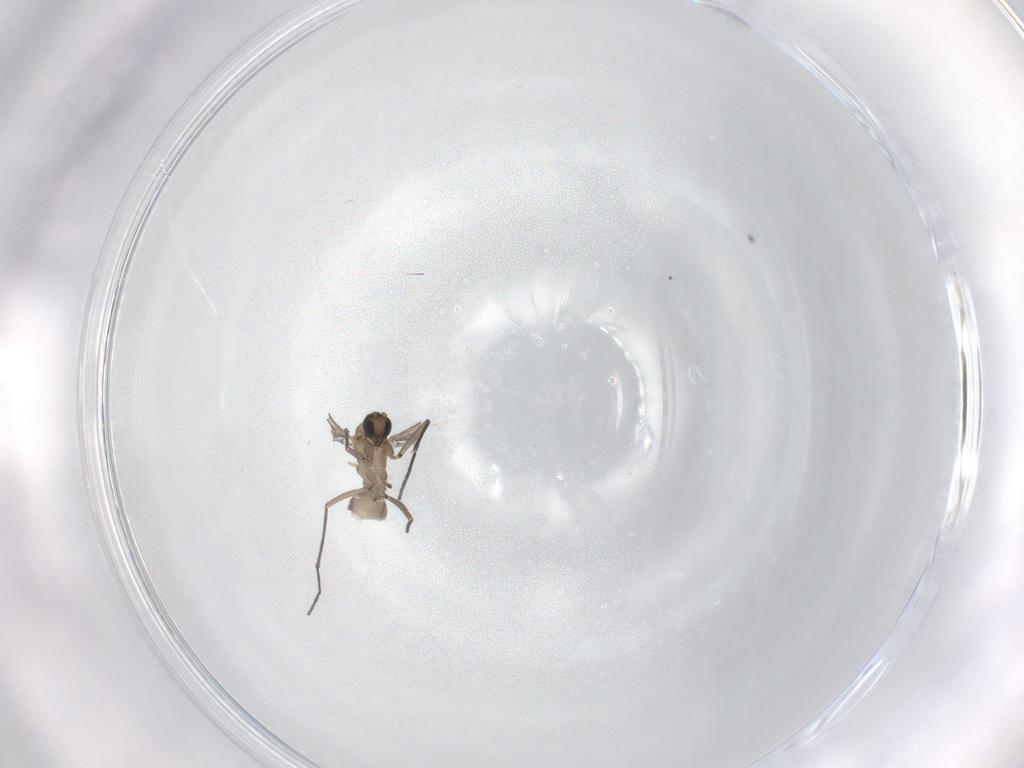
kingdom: Animalia
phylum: Arthropoda
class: Insecta
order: Diptera
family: Sciaridae
